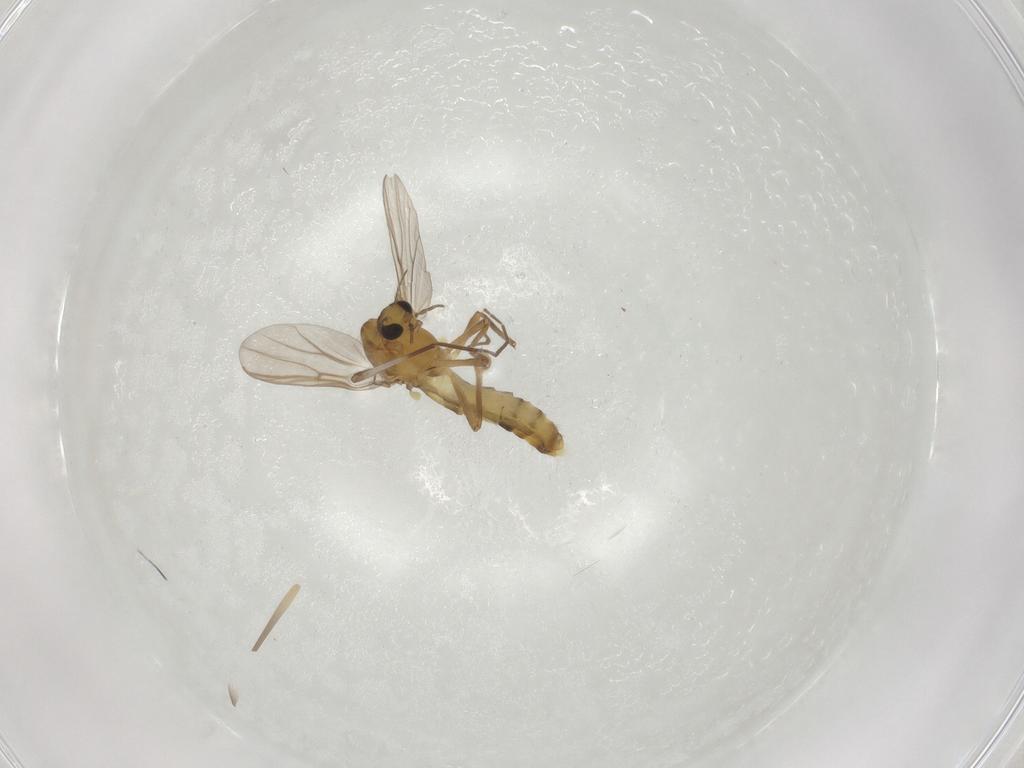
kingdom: Animalia
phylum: Arthropoda
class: Insecta
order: Diptera
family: Chironomidae
